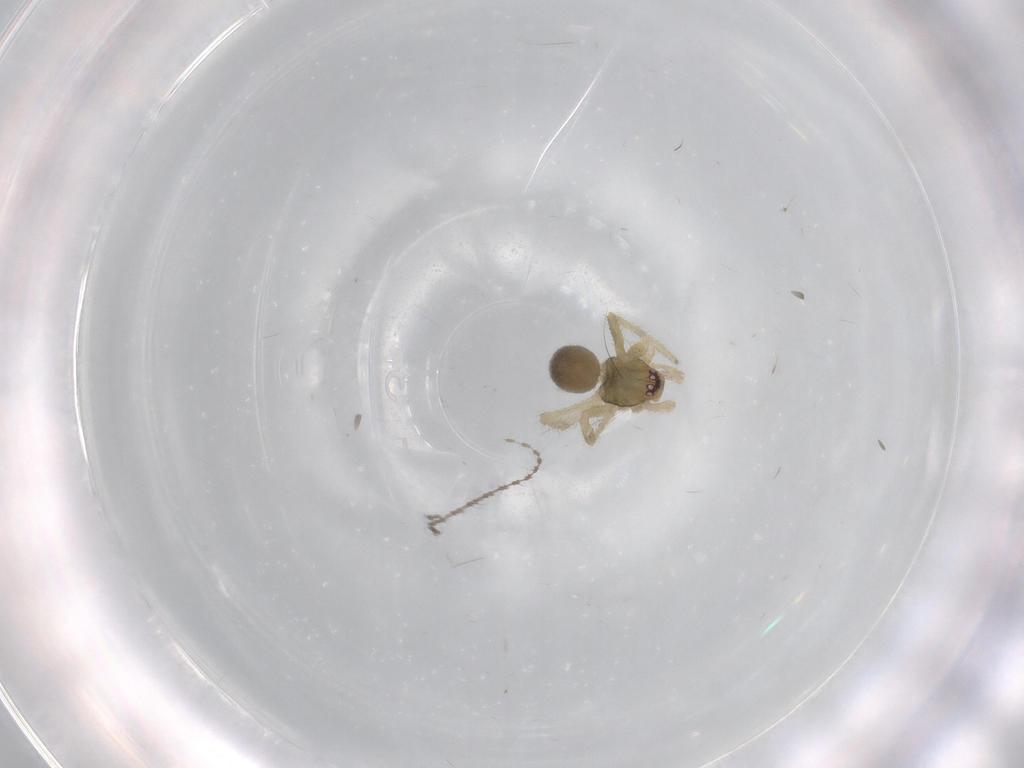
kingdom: Animalia
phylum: Arthropoda
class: Arachnida
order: Araneae
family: Nesticidae
